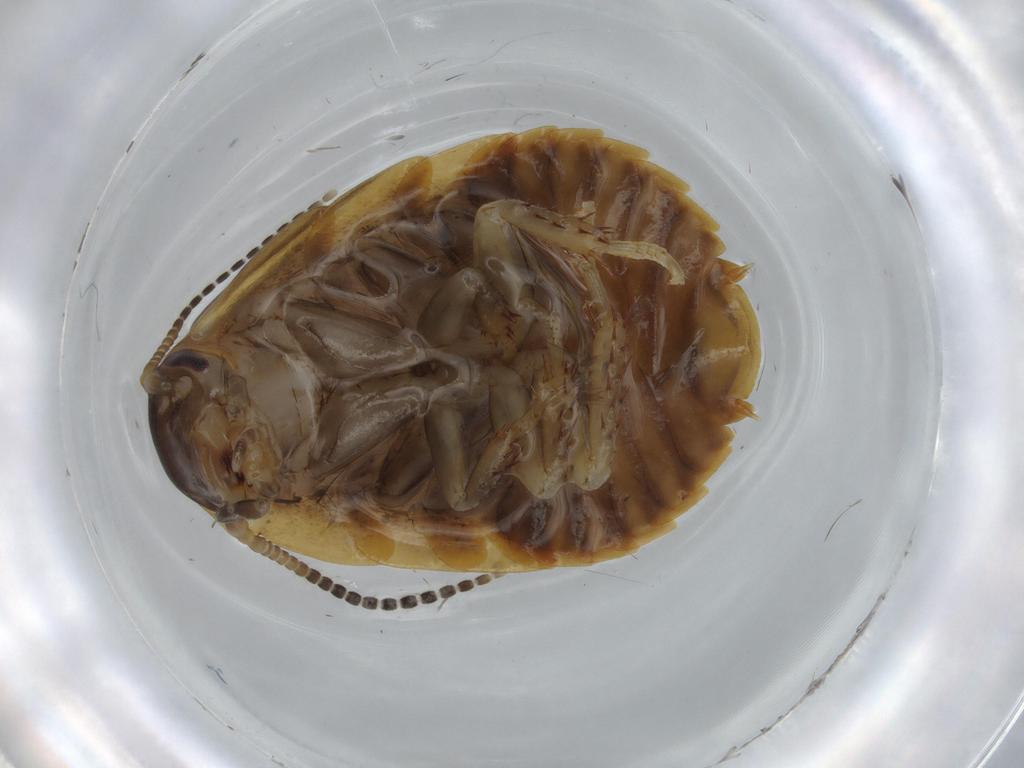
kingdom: Animalia
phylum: Arthropoda
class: Insecta
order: Blattodea
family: Blaberidae
